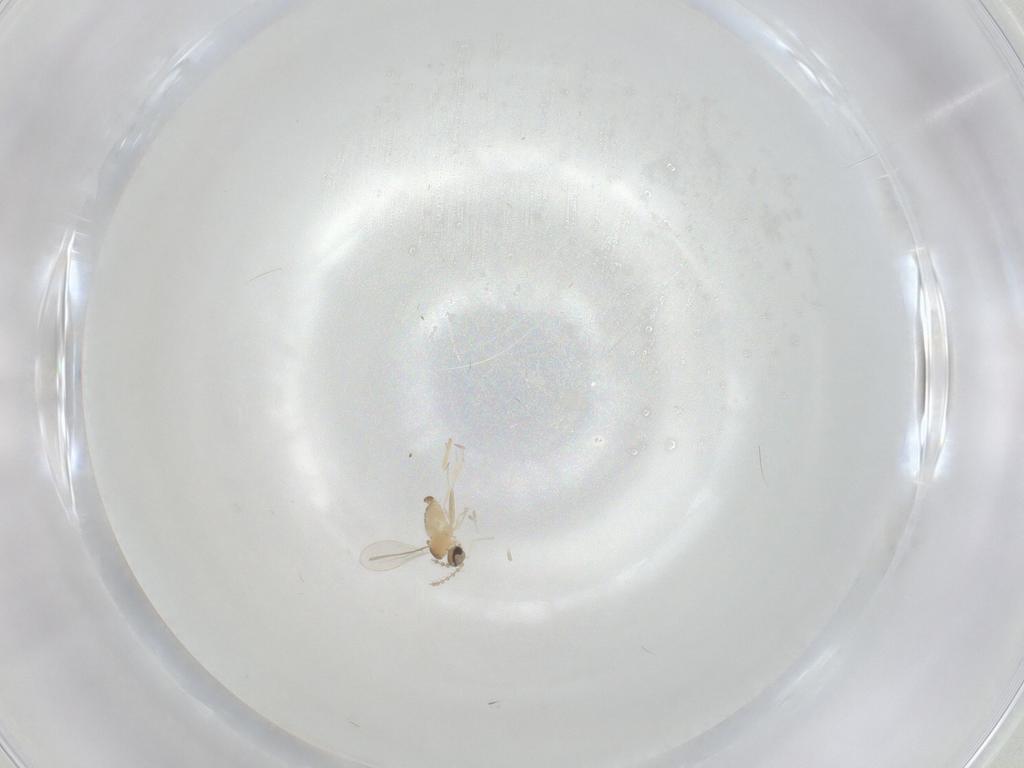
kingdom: Animalia
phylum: Arthropoda
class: Insecta
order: Diptera
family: Cecidomyiidae
